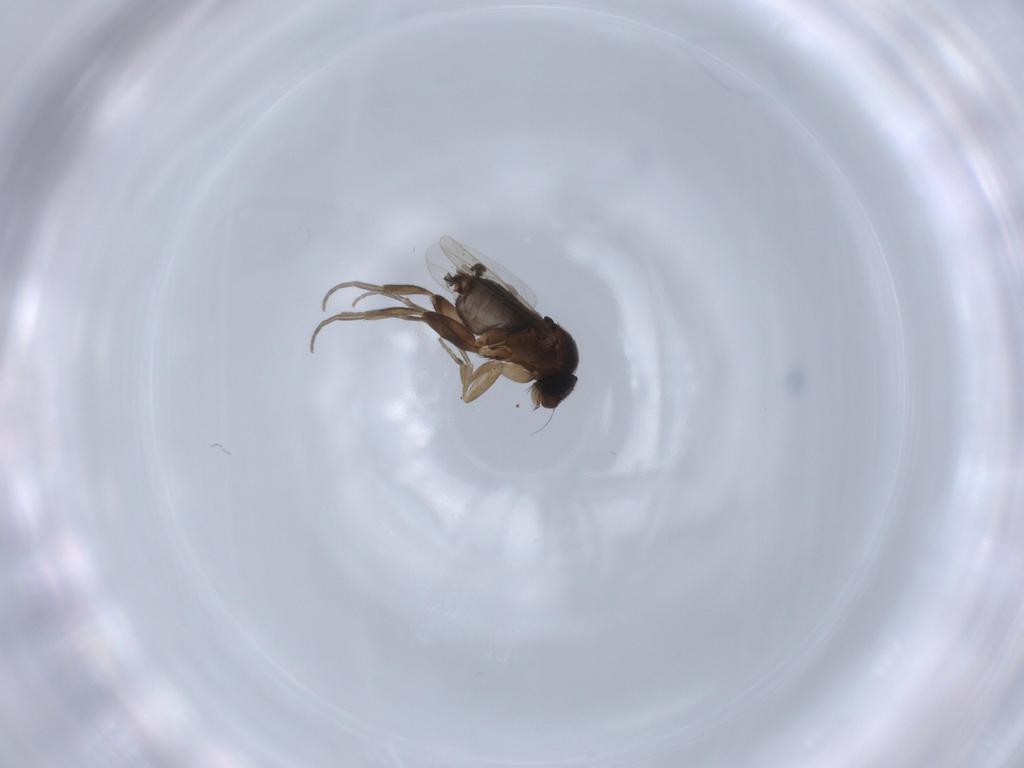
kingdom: Animalia
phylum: Arthropoda
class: Insecta
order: Diptera
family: Phoridae
